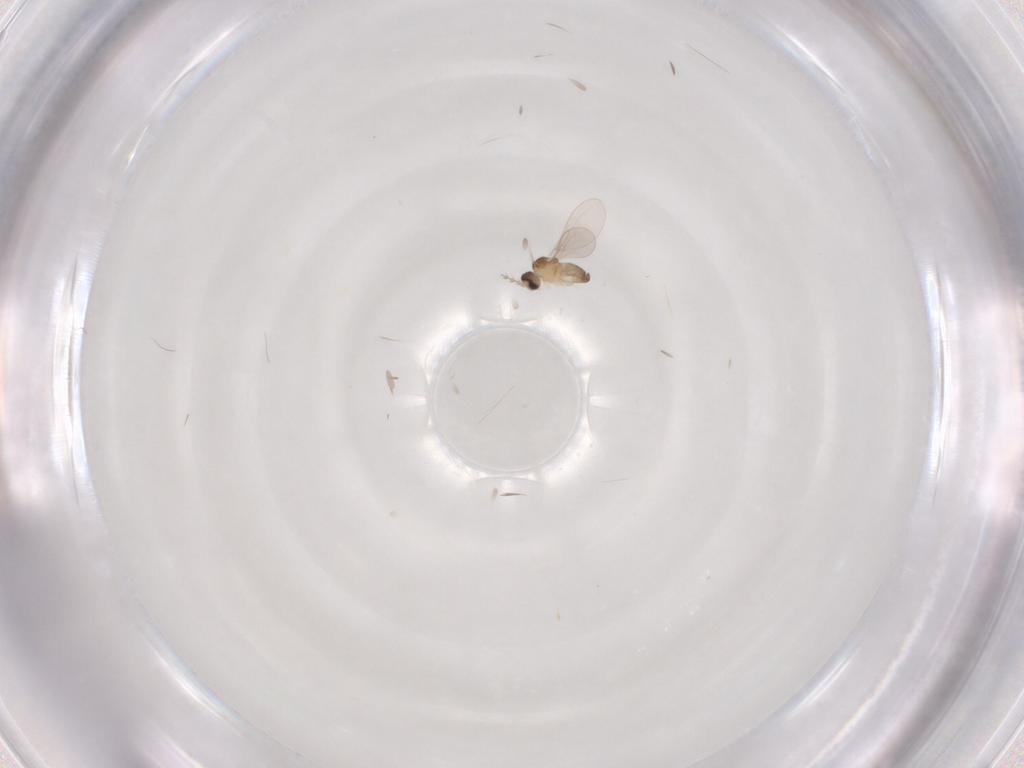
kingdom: Animalia
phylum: Arthropoda
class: Insecta
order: Diptera
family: Cecidomyiidae
